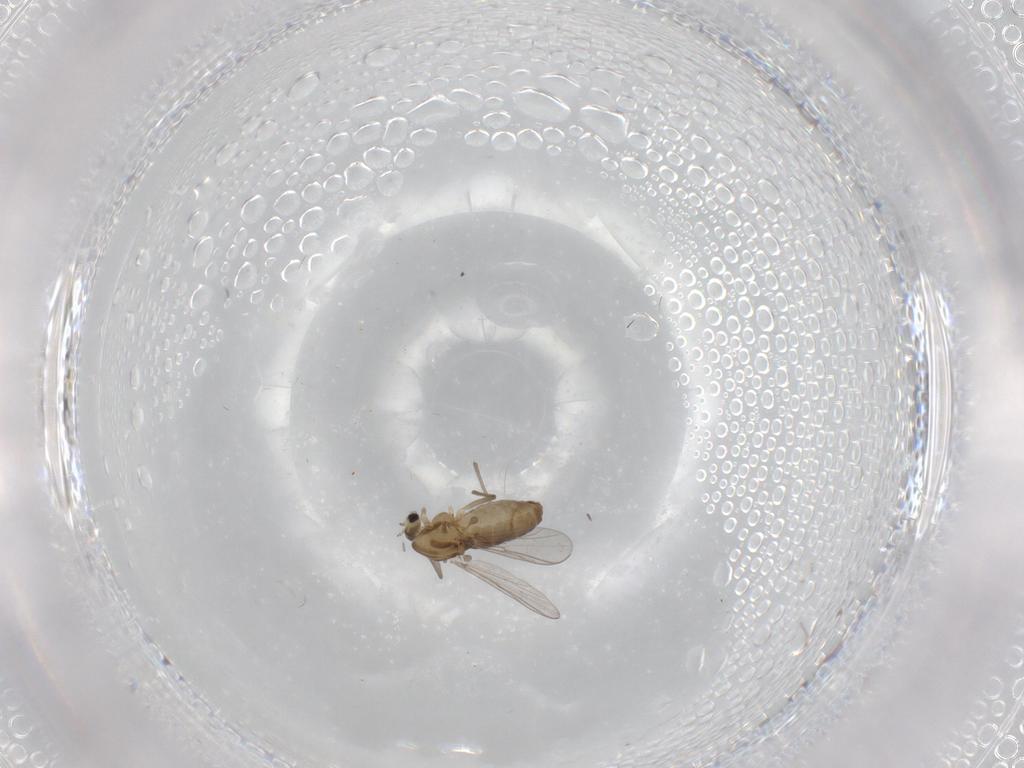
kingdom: Animalia
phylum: Arthropoda
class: Insecta
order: Diptera
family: Chironomidae
